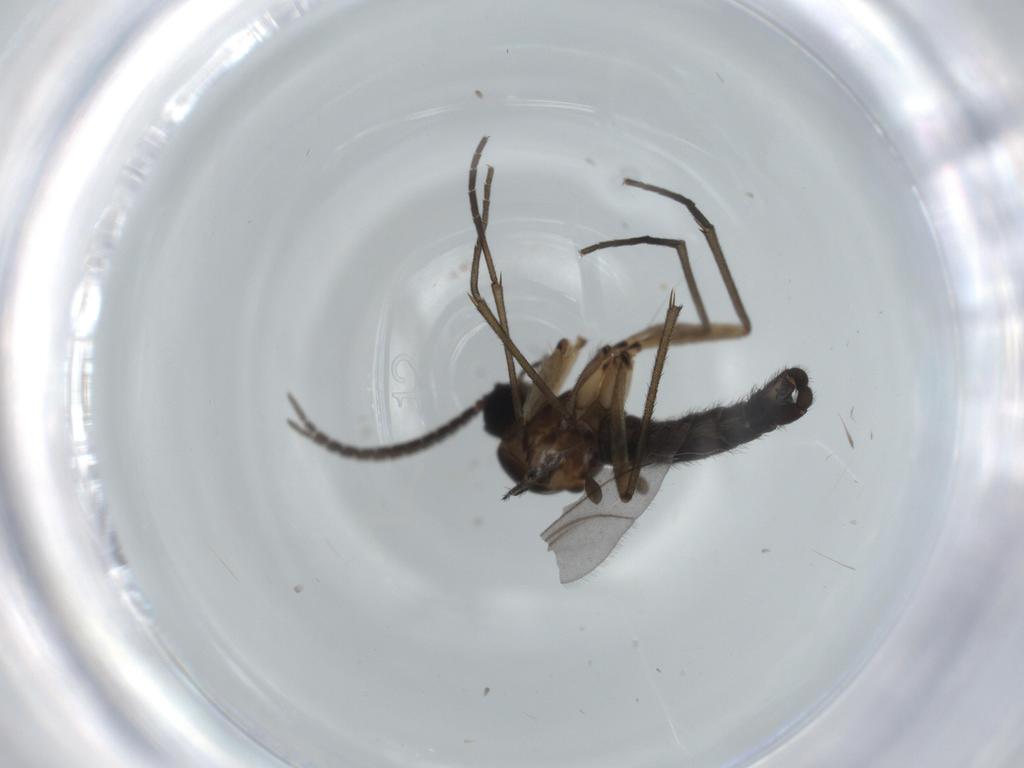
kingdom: Animalia
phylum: Arthropoda
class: Insecta
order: Diptera
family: Sciaridae
